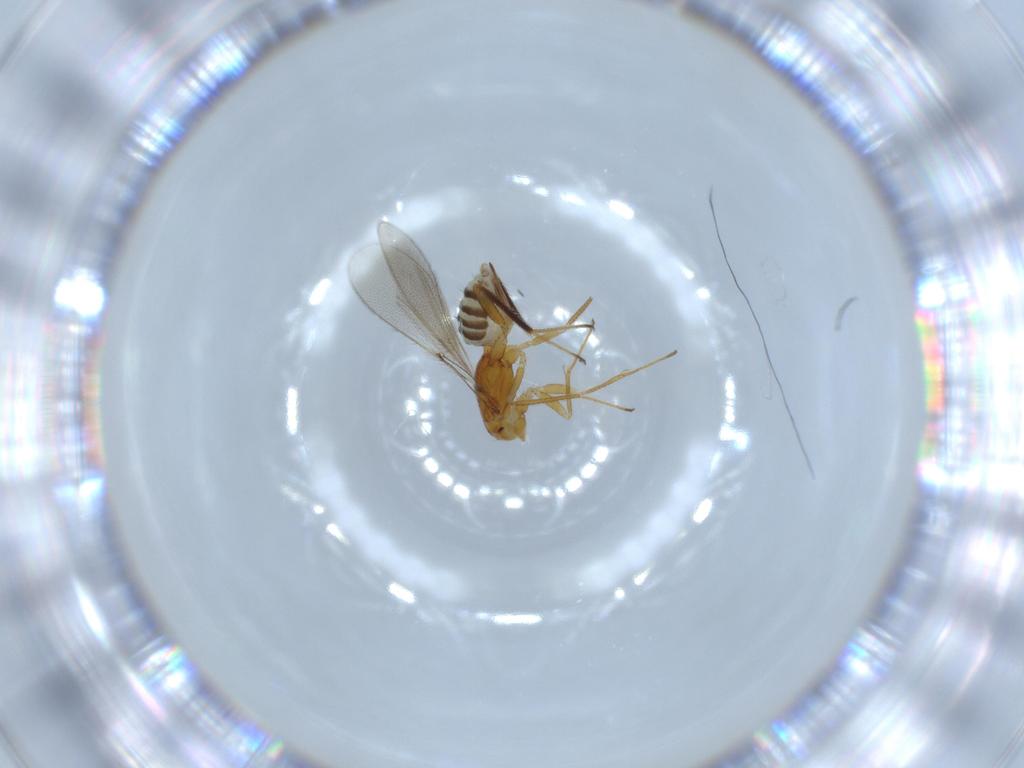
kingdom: Animalia
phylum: Arthropoda
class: Insecta
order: Hymenoptera
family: Mymaridae
